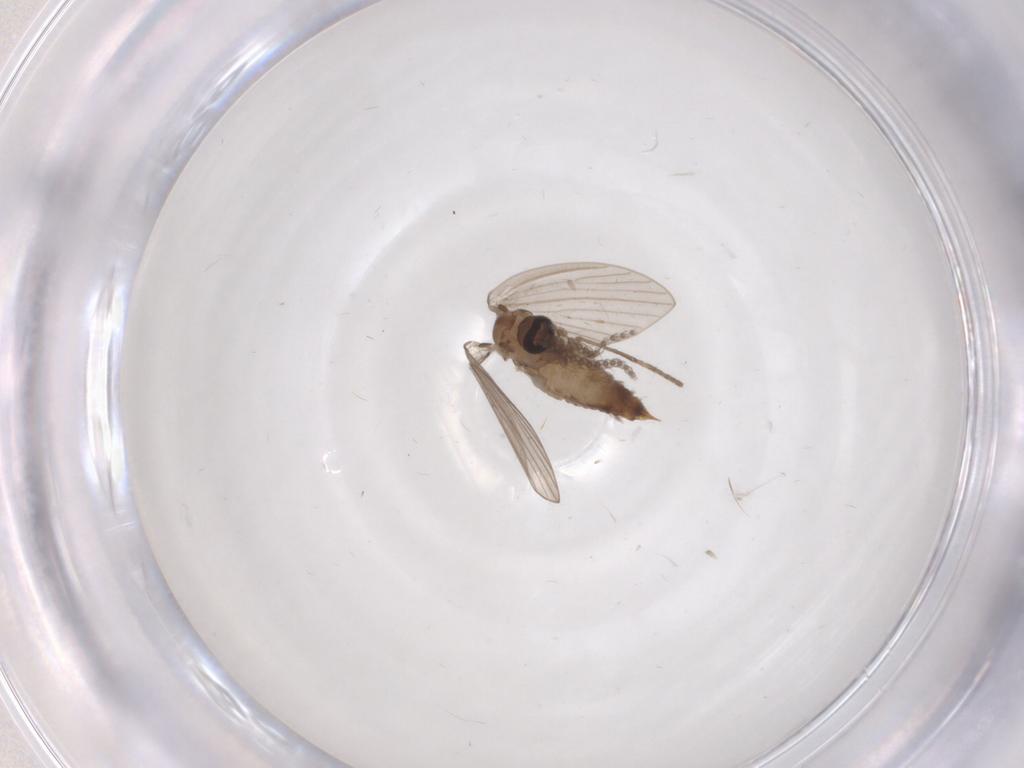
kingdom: Animalia
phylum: Arthropoda
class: Insecta
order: Diptera
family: Psychodidae
